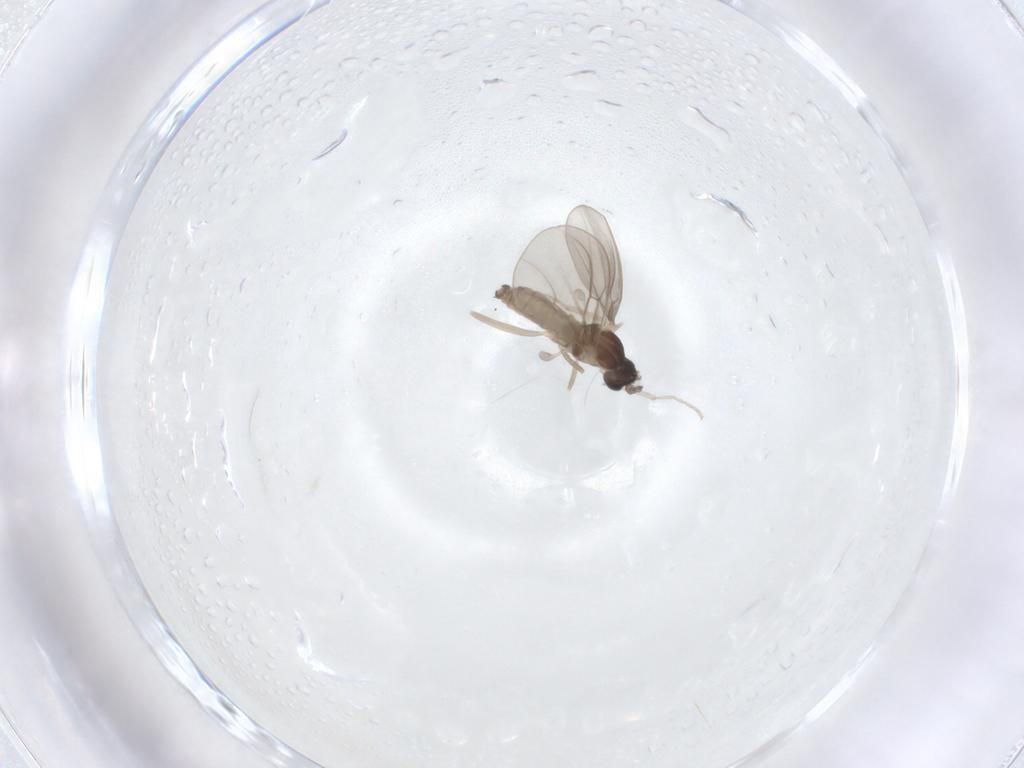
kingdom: Animalia
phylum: Arthropoda
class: Insecta
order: Diptera
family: Cecidomyiidae
